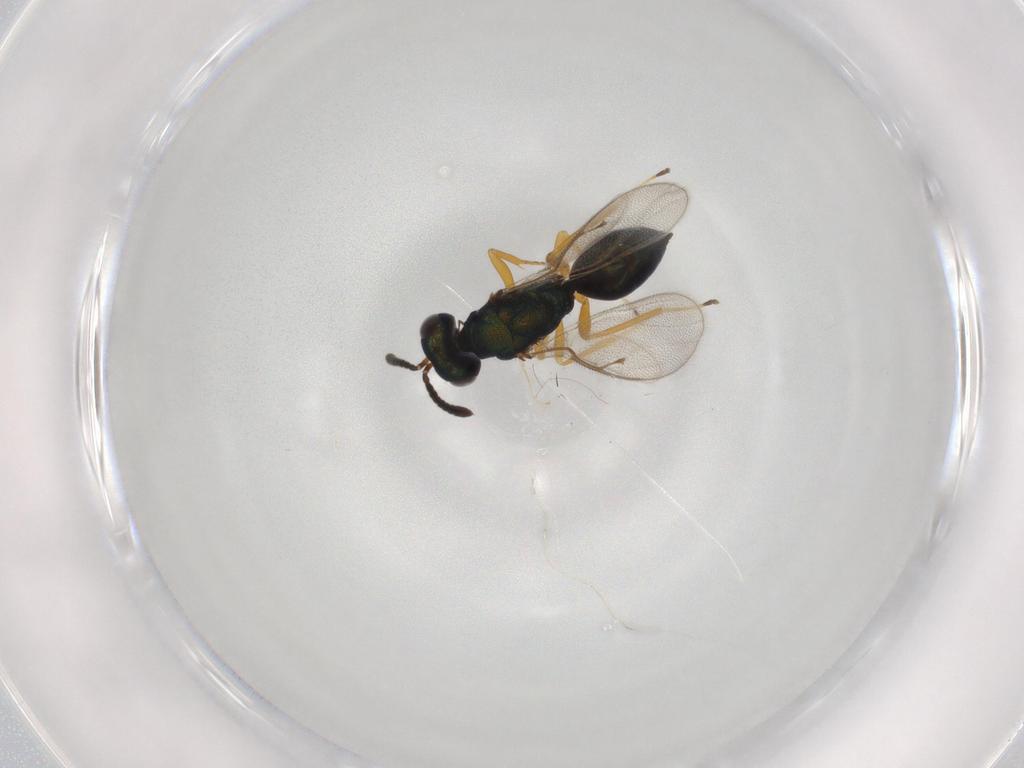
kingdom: Animalia
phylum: Arthropoda
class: Insecta
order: Hymenoptera
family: Pteromalidae
